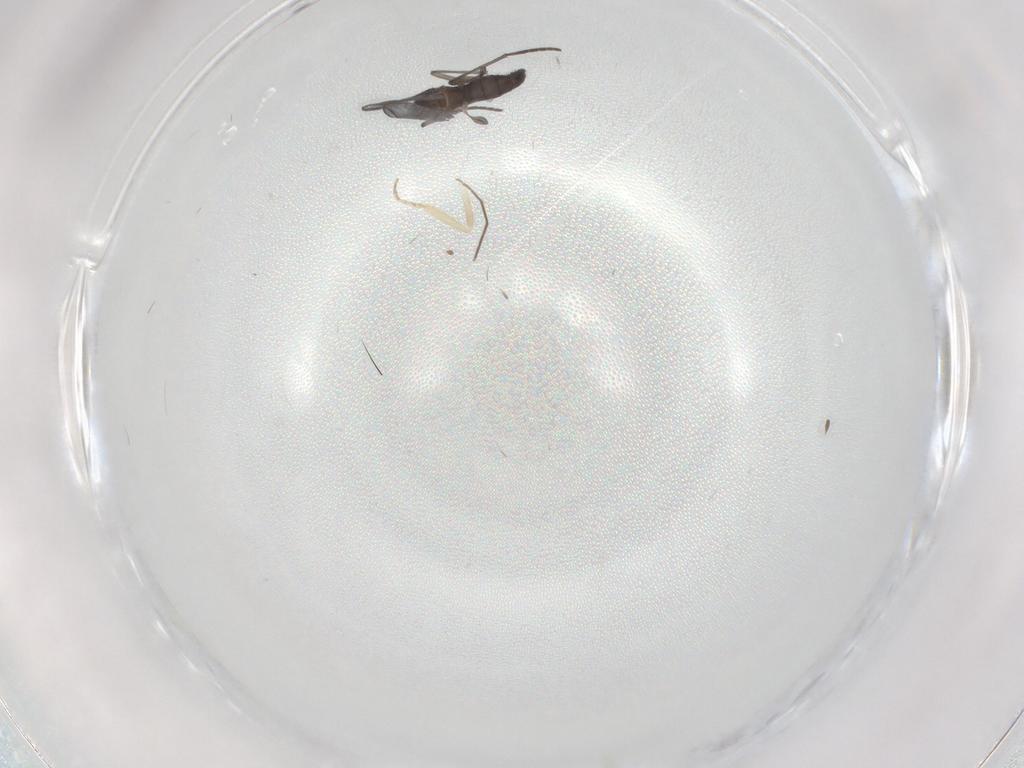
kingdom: Animalia
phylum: Arthropoda
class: Insecta
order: Diptera
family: Ceratopogonidae
